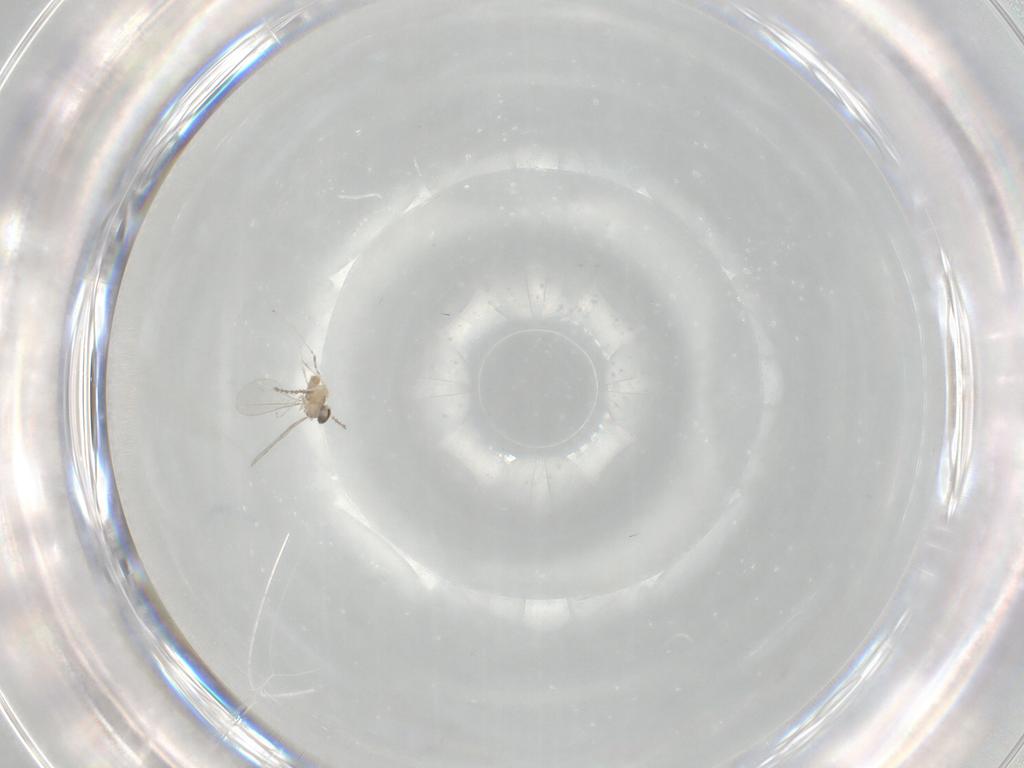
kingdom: Animalia
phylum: Arthropoda
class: Insecta
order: Diptera
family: Cecidomyiidae
